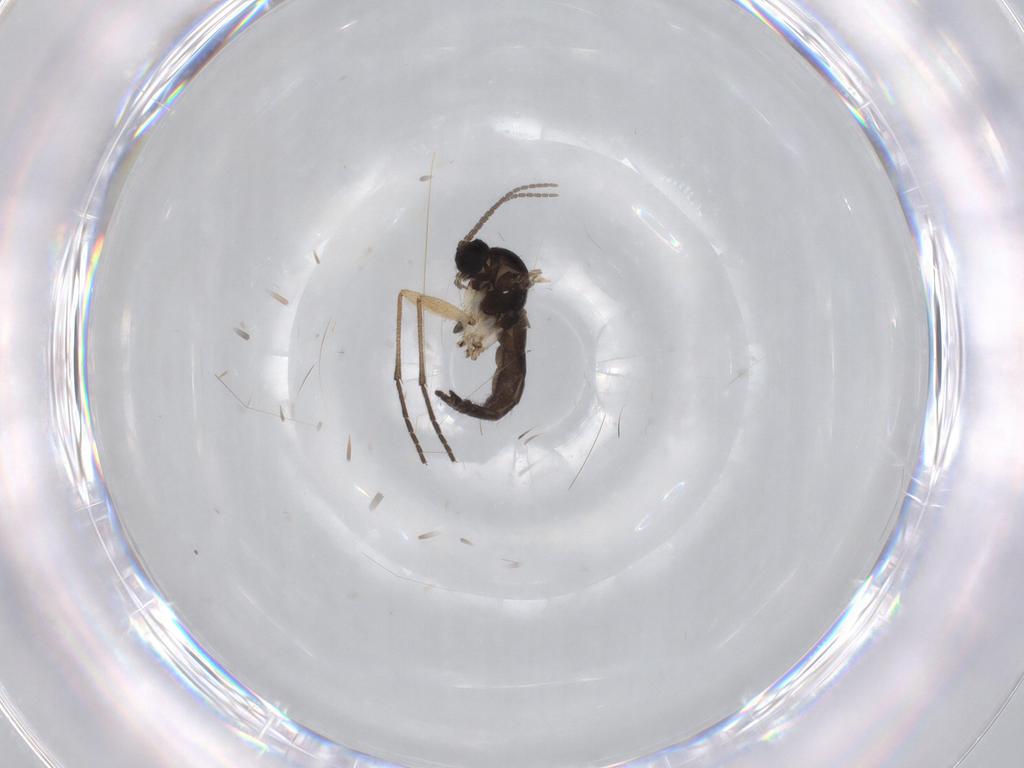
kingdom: Animalia
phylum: Arthropoda
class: Insecta
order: Diptera
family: Sciaridae
